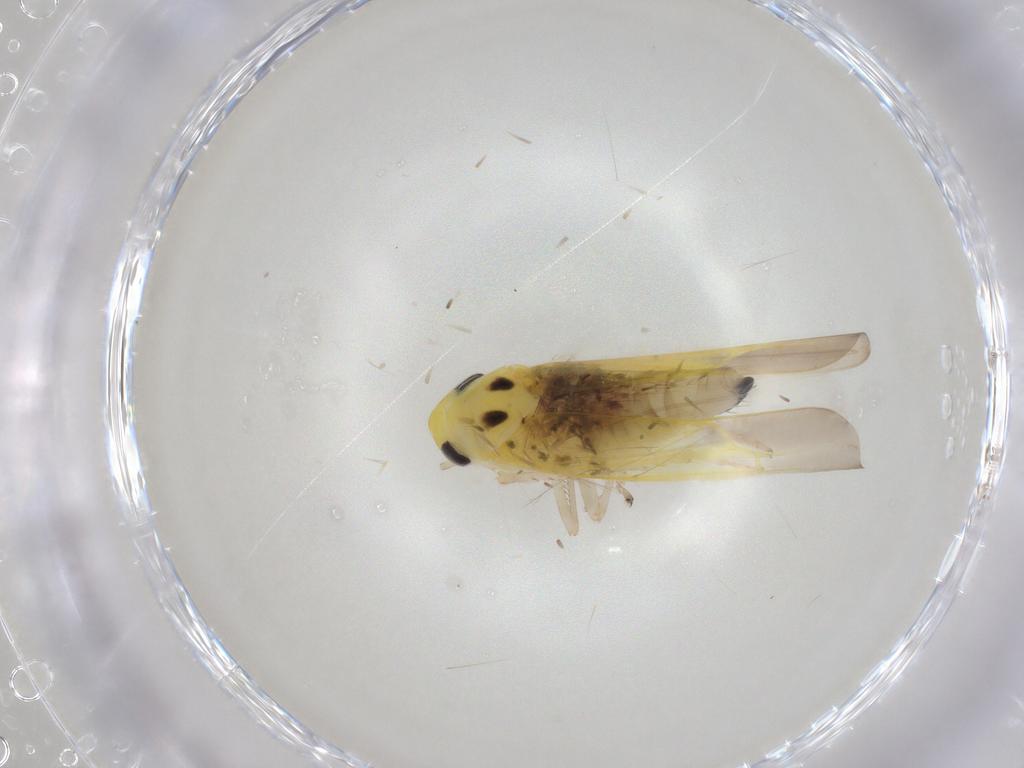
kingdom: Animalia
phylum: Arthropoda
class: Insecta
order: Hemiptera
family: Cicadellidae
